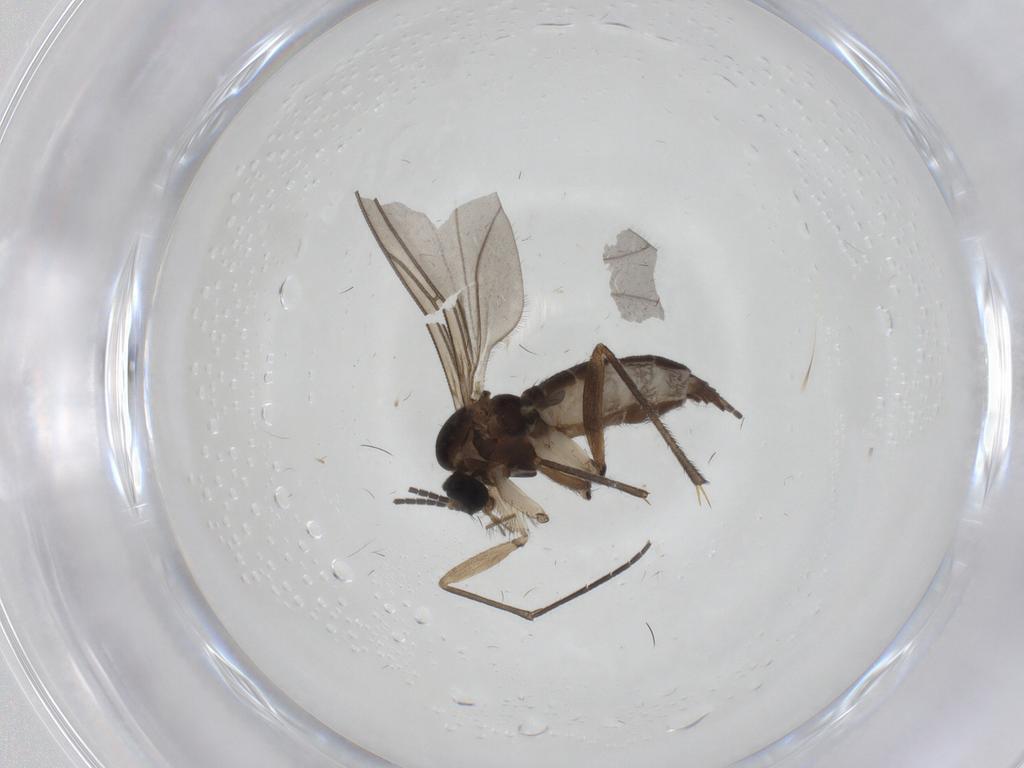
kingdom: Animalia
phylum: Arthropoda
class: Insecta
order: Diptera
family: Sciaridae
